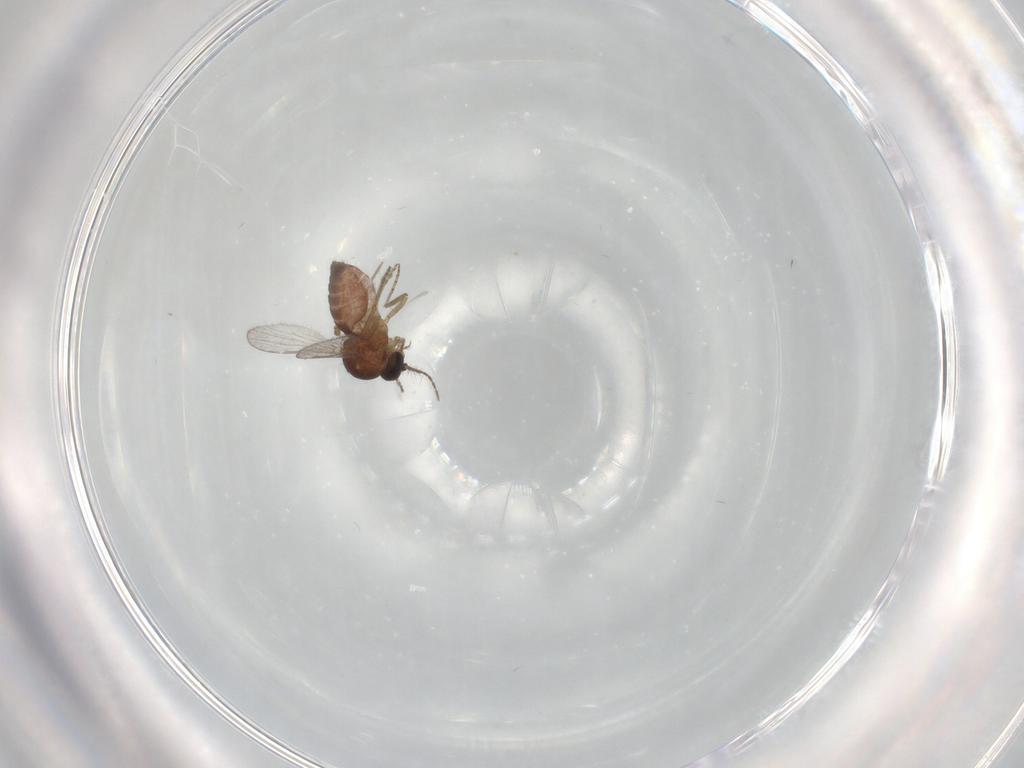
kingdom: Animalia
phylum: Arthropoda
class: Insecta
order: Diptera
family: Ceratopogonidae
